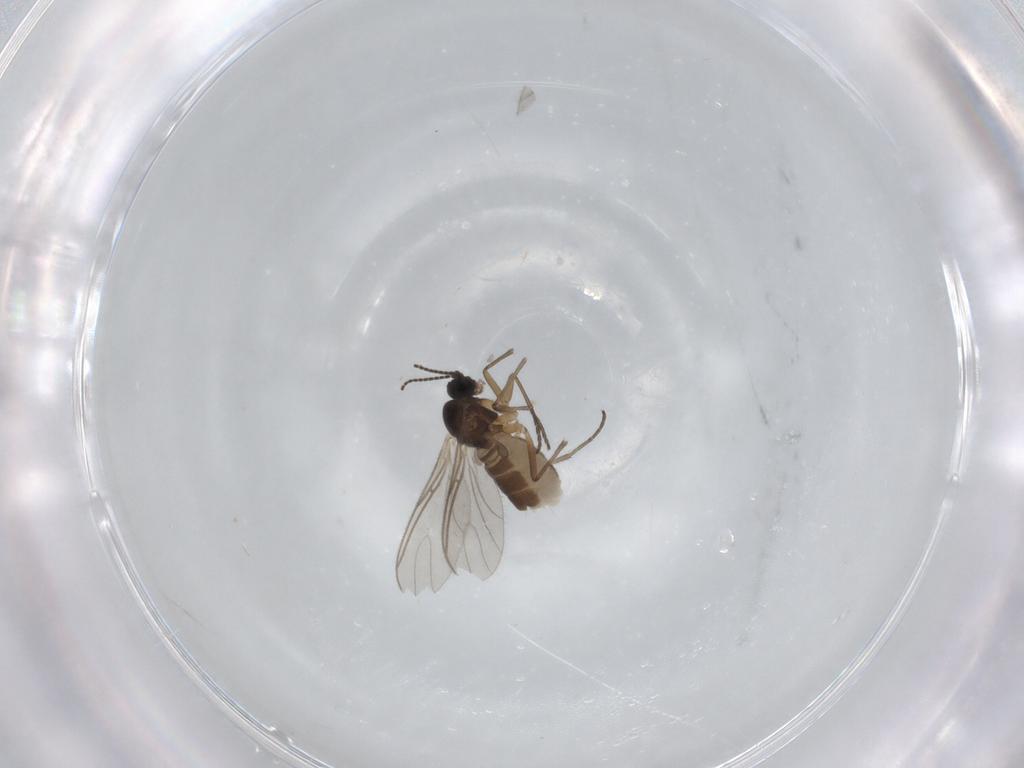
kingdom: Animalia
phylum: Arthropoda
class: Insecta
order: Diptera
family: Sciaridae
